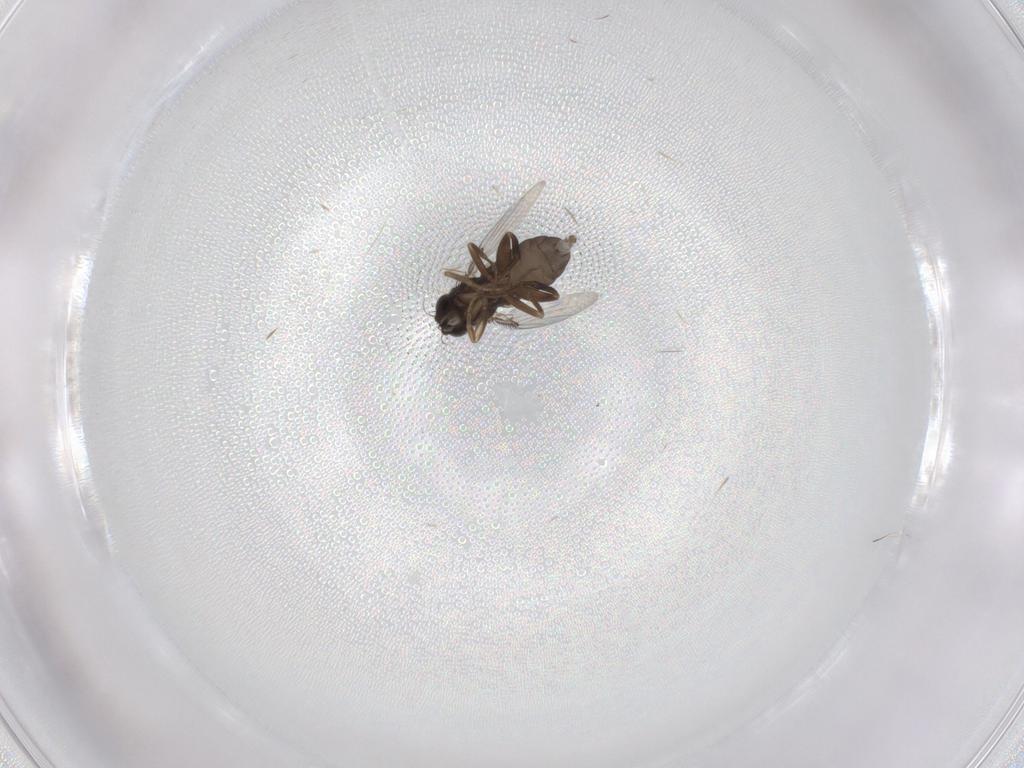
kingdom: Animalia
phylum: Arthropoda
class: Insecta
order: Diptera
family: Phoridae
